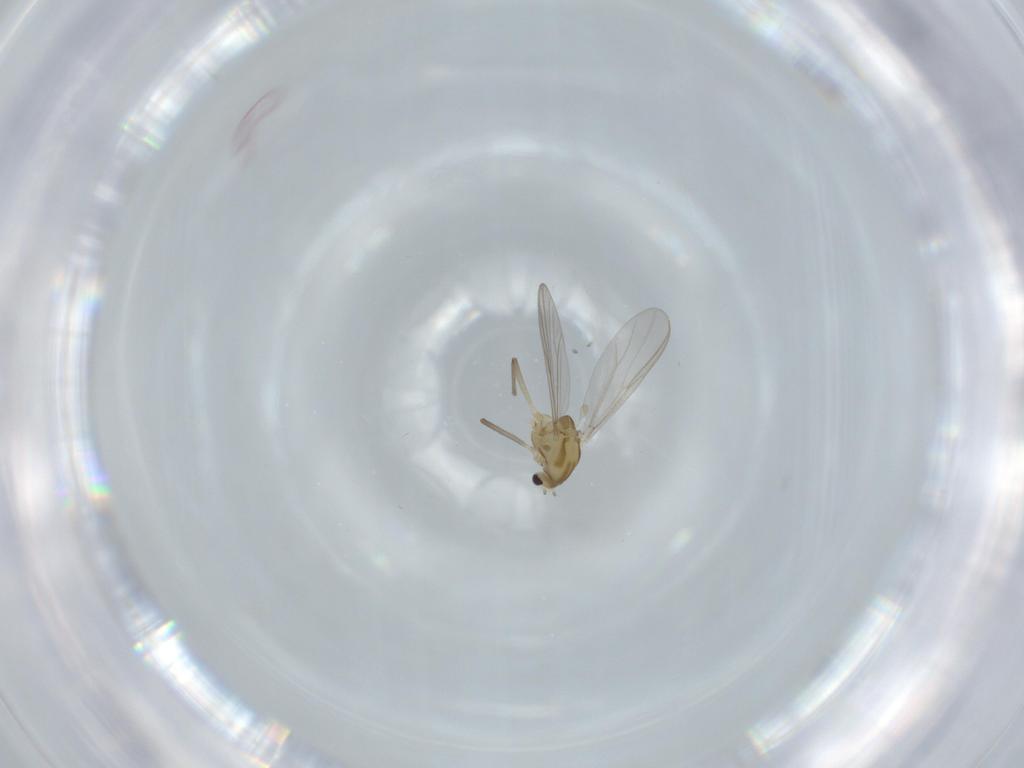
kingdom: Animalia
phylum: Arthropoda
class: Insecta
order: Diptera
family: Chironomidae
